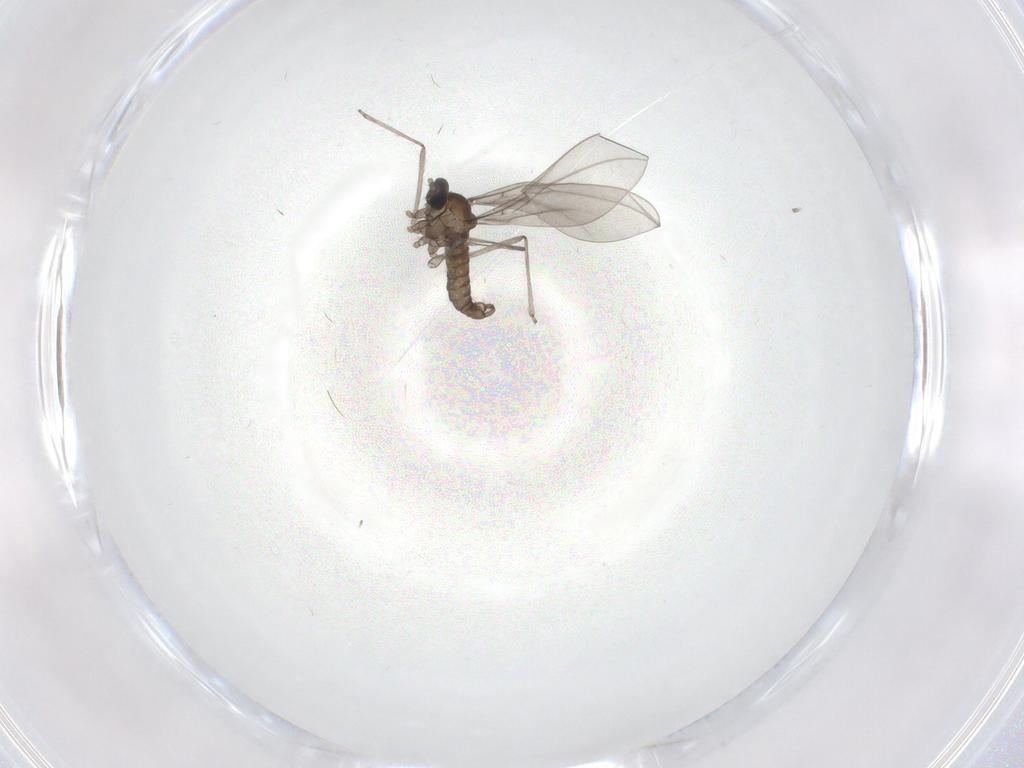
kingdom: Animalia
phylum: Arthropoda
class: Insecta
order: Diptera
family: Cecidomyiidae
